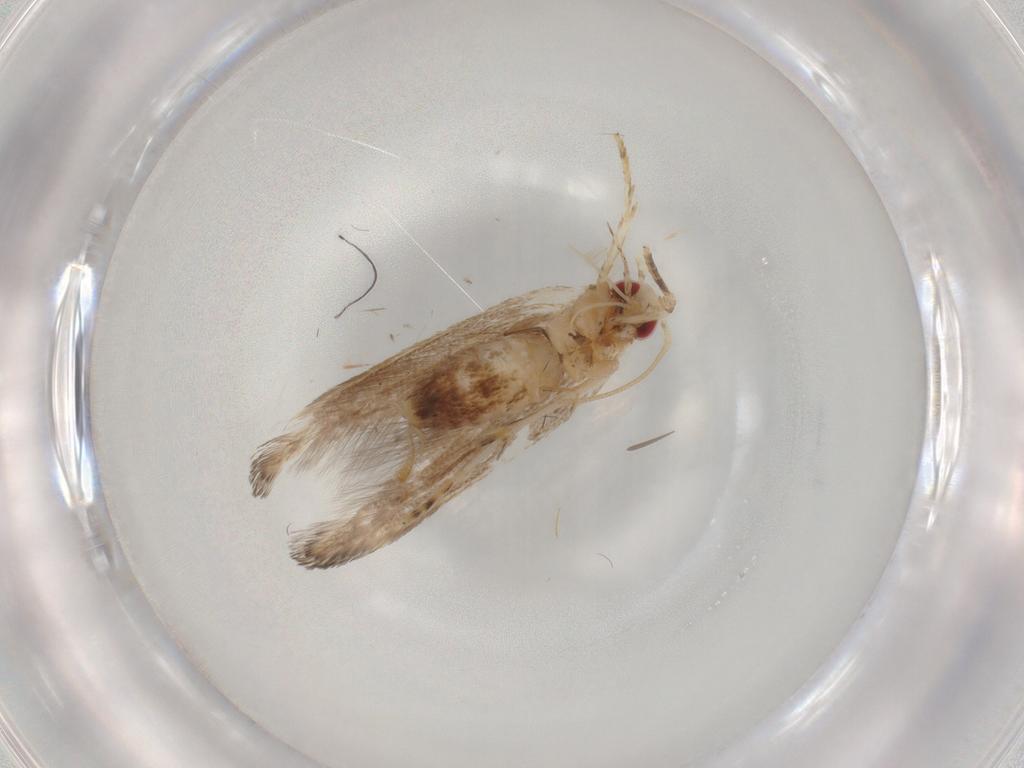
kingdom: Animalia
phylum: Arthropoda
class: Insecta
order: Lepidoptera
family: Cosmopterigidae
